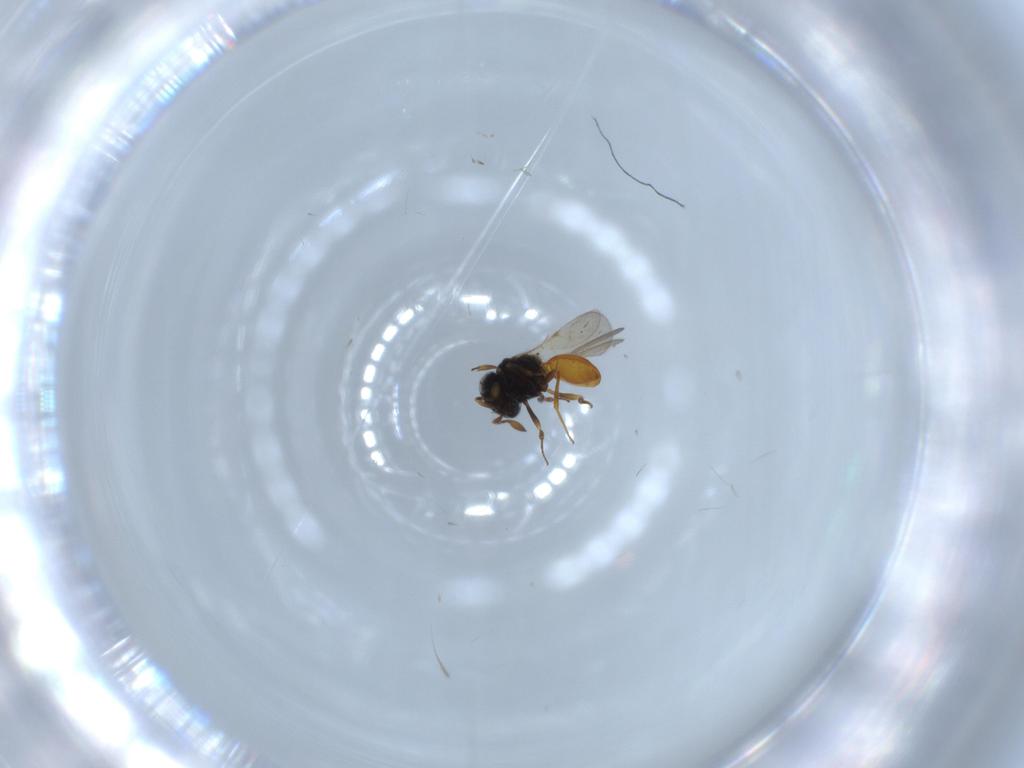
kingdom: Animalia
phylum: Arthropoda
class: Insecta
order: Hymenoptera
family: Scelionidae
